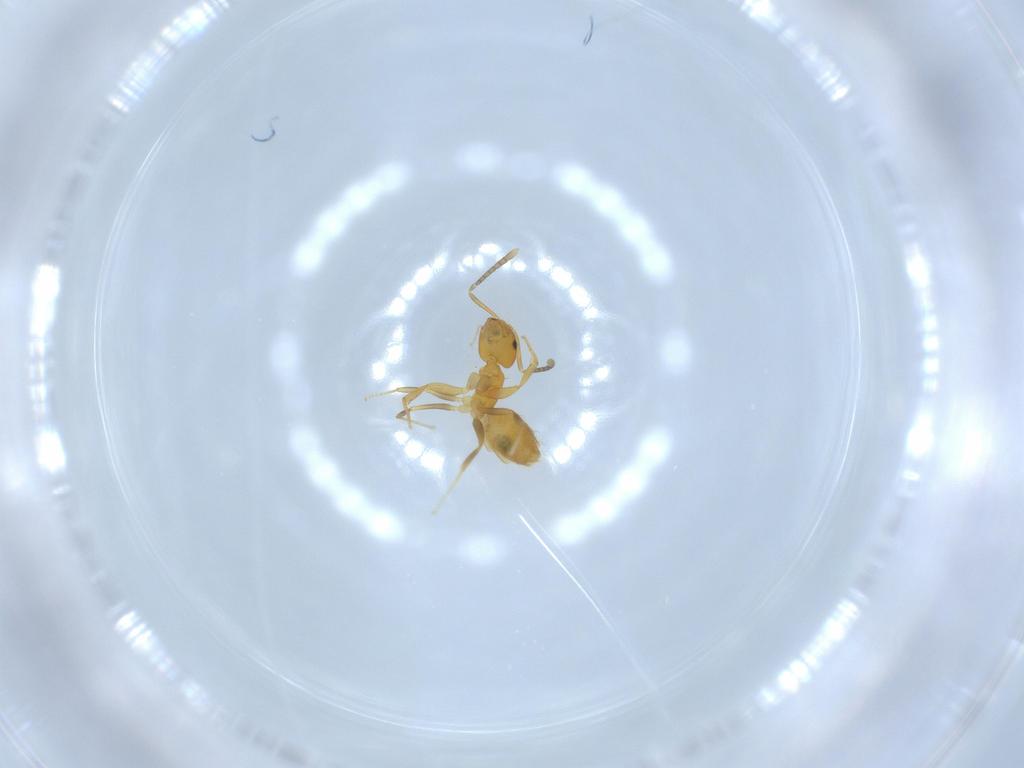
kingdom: Animalia
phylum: Arthropoda
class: Insecta
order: Hymenoptera
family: Formicidae
